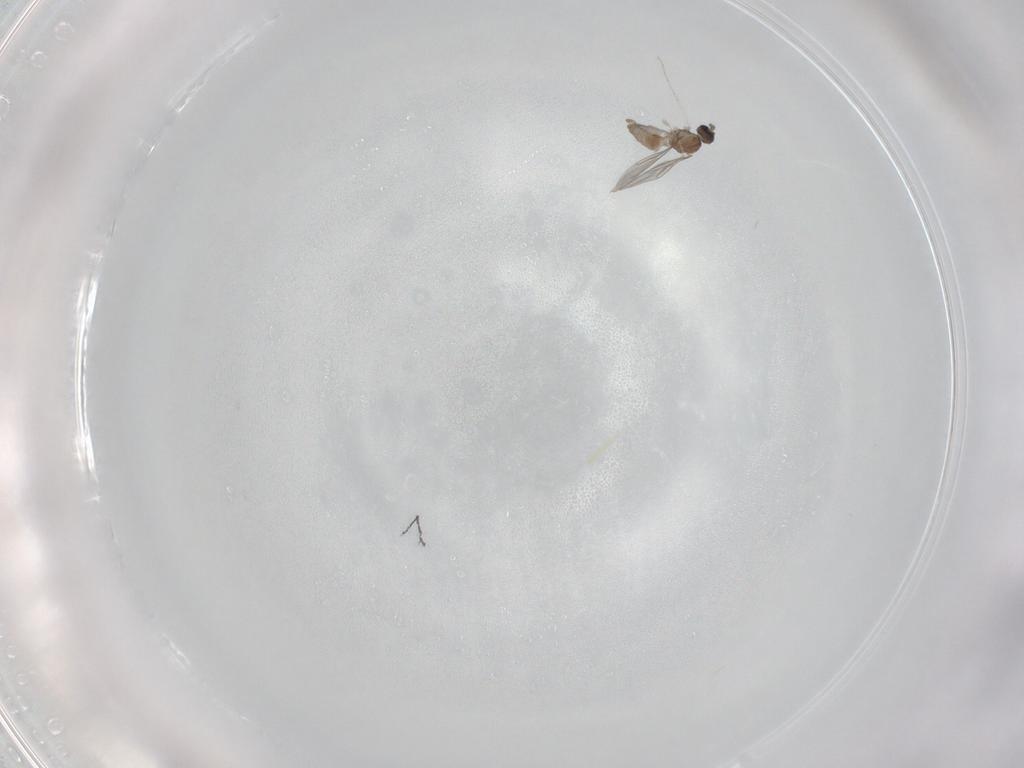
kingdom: Animalia
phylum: Arthropoda
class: Insecta
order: Diptera
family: Cecidomyiidae
